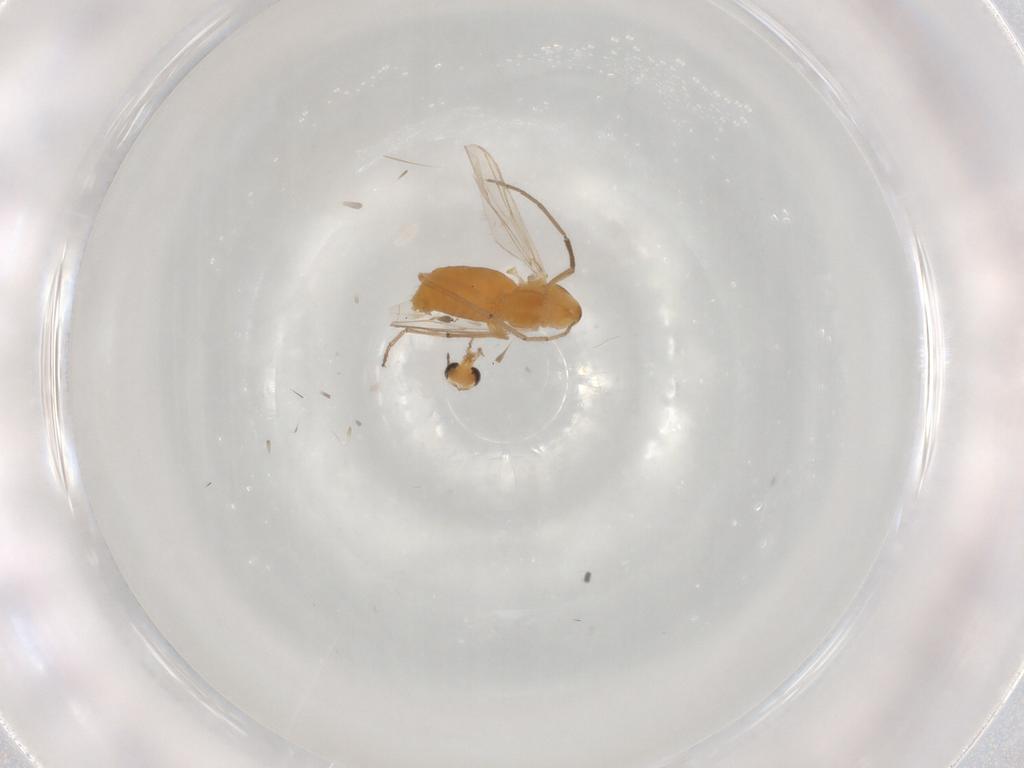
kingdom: Animalia
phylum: Arthropoda
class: Insecta
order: Diptera
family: Mycetophilidae
